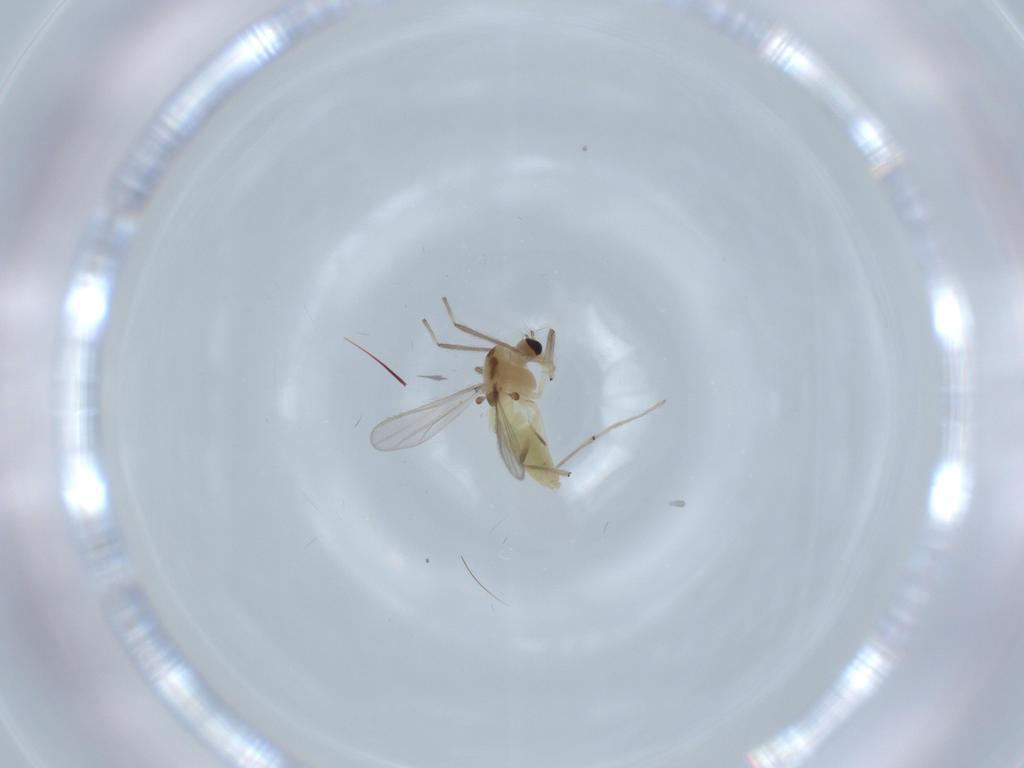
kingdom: Animalia
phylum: Arthropoda
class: Insecta
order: Diptera
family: Chironomidae
